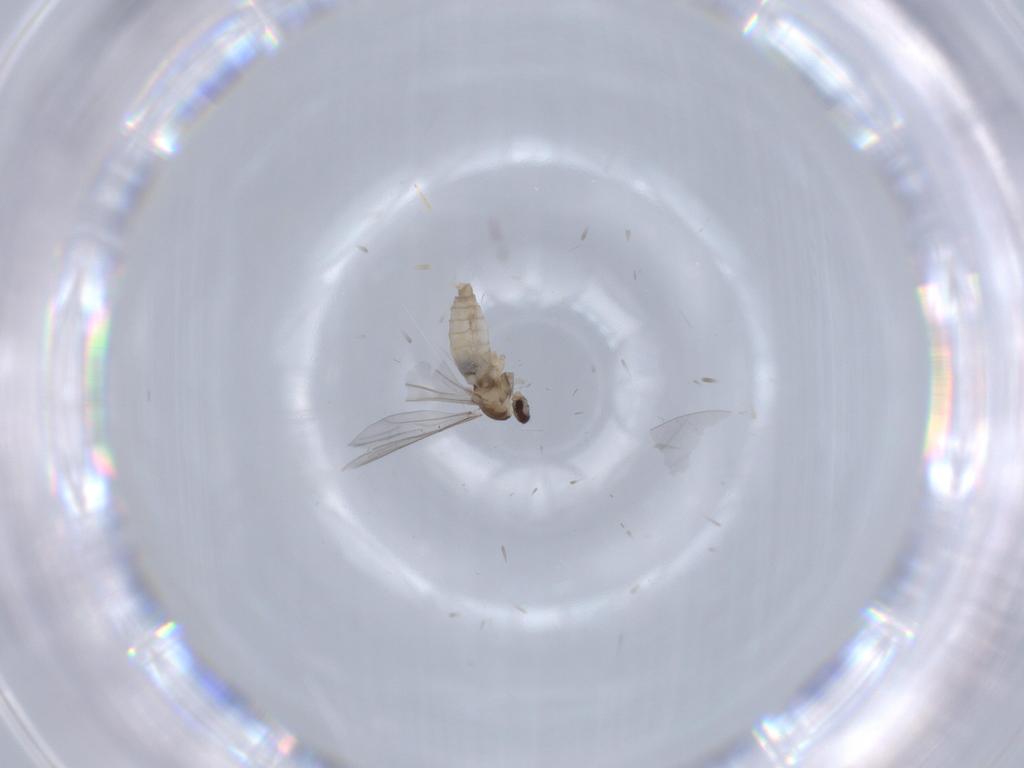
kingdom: Animalia
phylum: Arthropoda
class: Insecta
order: Diptera
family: Cecidomyiidae
